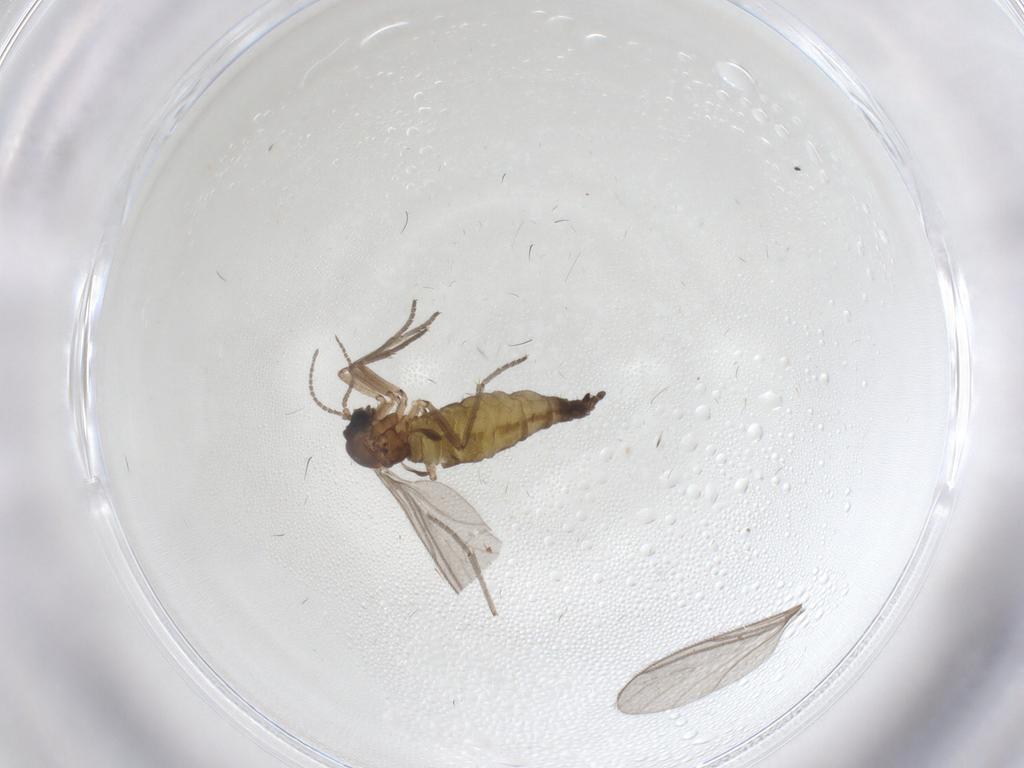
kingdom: Animalia
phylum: Arthropoda
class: Insecta
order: Diptera
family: Sciaridae
